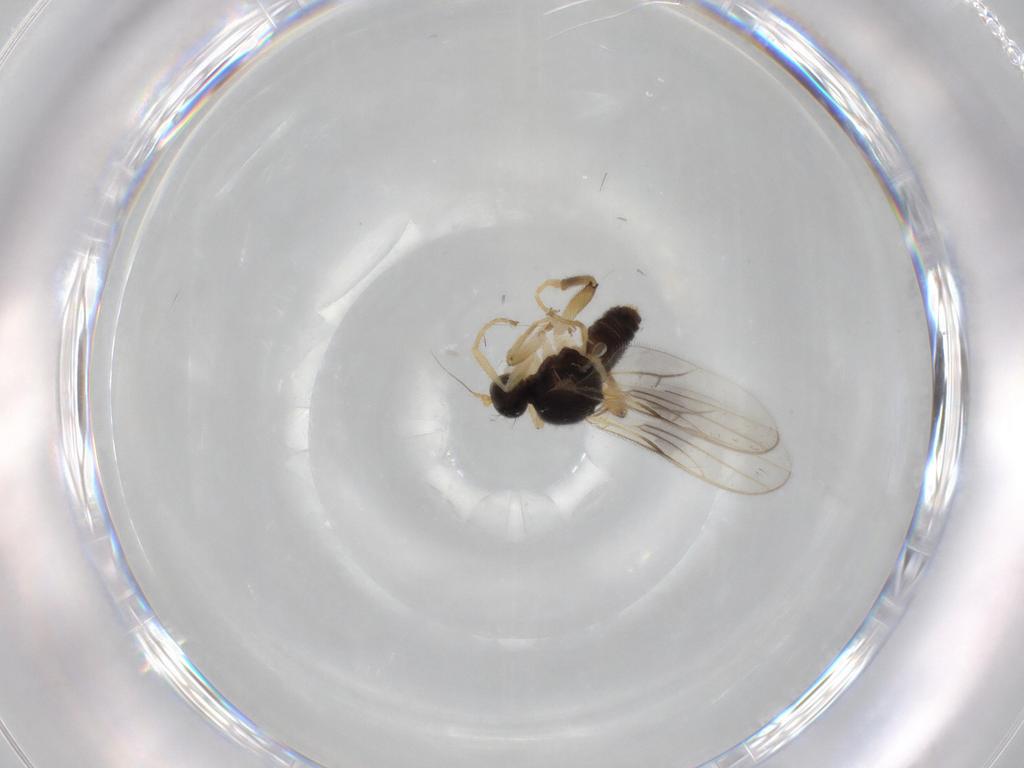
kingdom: Animalia
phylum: Arthropoda
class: Insecta
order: Diptera
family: Hybotidae
